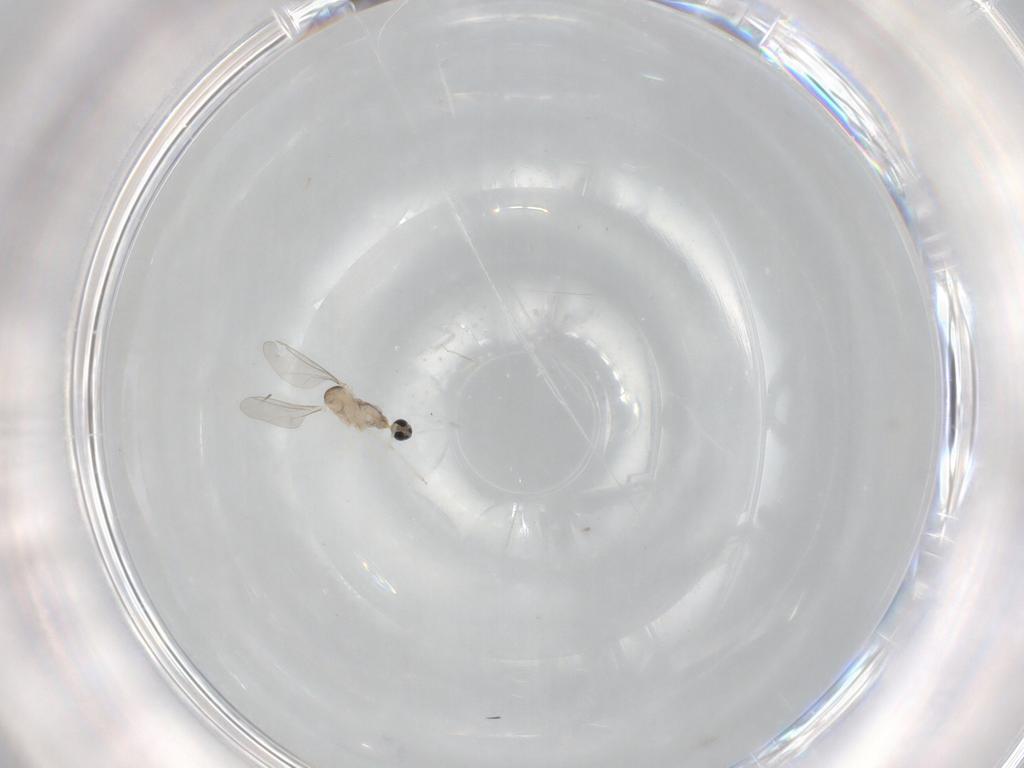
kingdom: Animalia
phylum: Arthropoda
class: Insecta
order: Diptera
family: Cecidomyiidae
